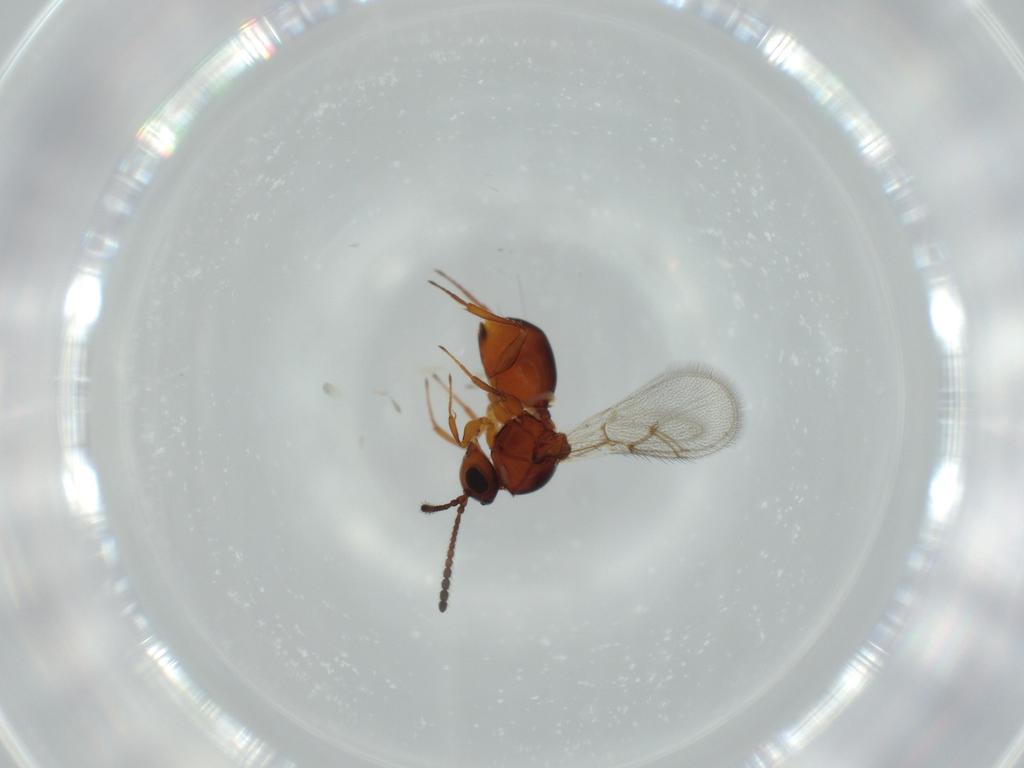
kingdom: Animalia
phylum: Arthropoda
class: Insecta
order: Hymenoptera
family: Figitidae
